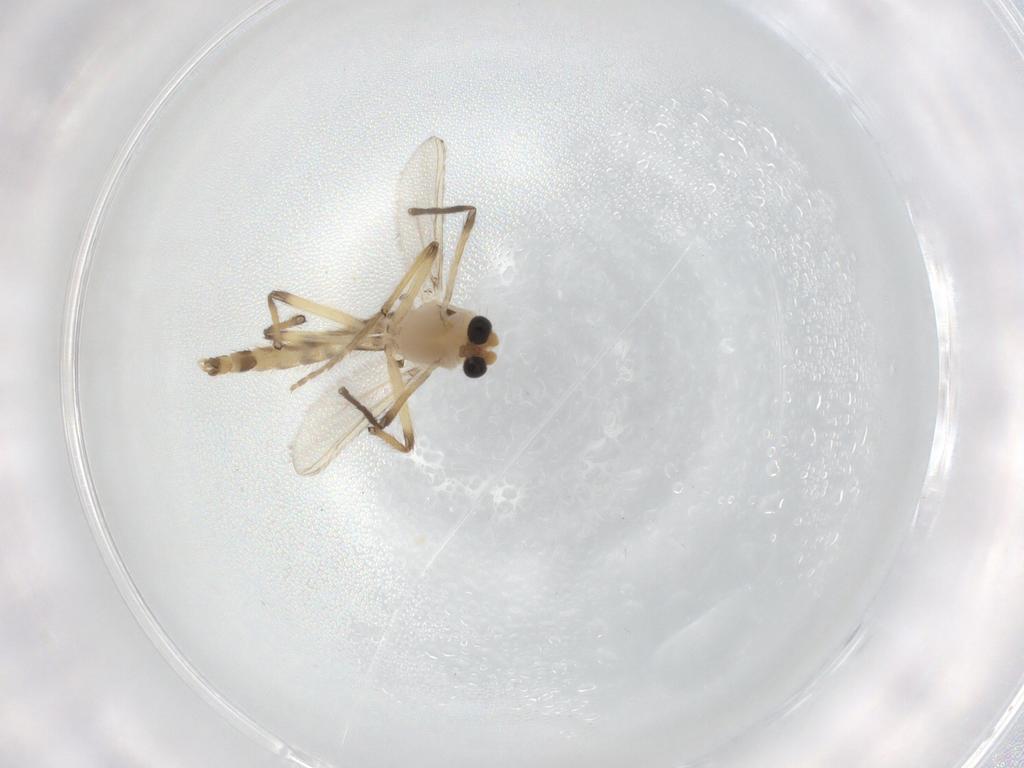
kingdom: Animalia
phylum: Arthropoda
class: Insecta
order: Diptera
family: Chironomidae
